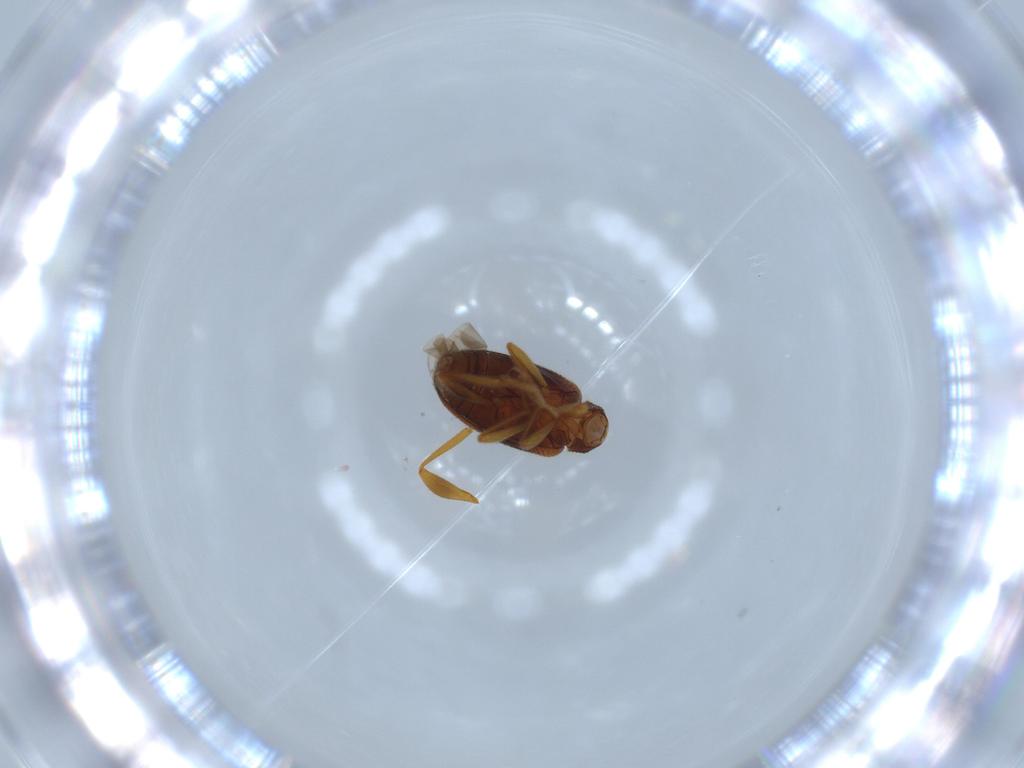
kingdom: Animalia
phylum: Arthropoda
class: Insecta
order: Coleoptera
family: Aderidae
